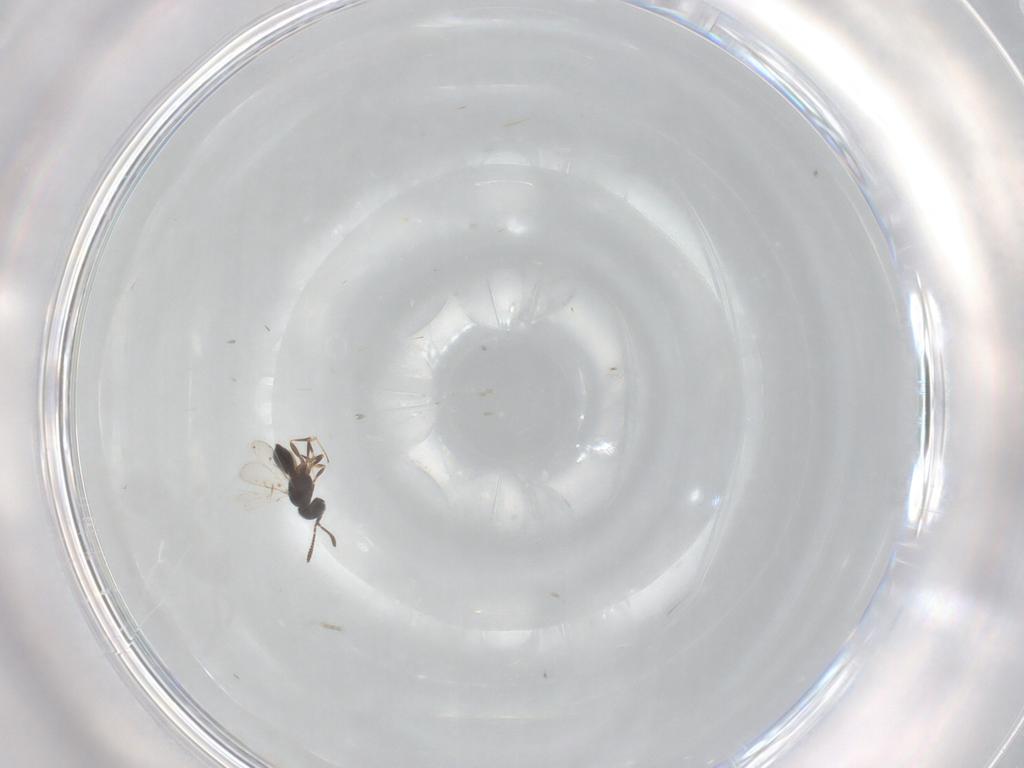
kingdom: Animalia
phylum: Arthropoda
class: Insecta
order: Hymenoptera
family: Scelionidae
